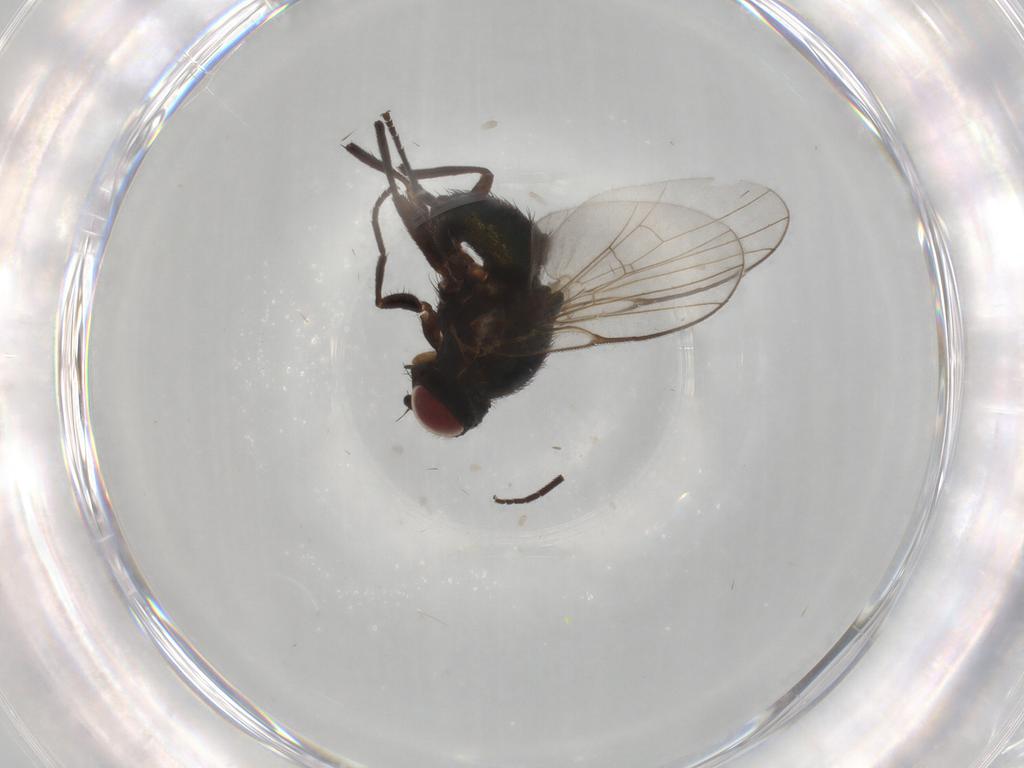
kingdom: Animalia
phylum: Arthropoda
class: Insecta
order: Diptera
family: Agromyzidae
